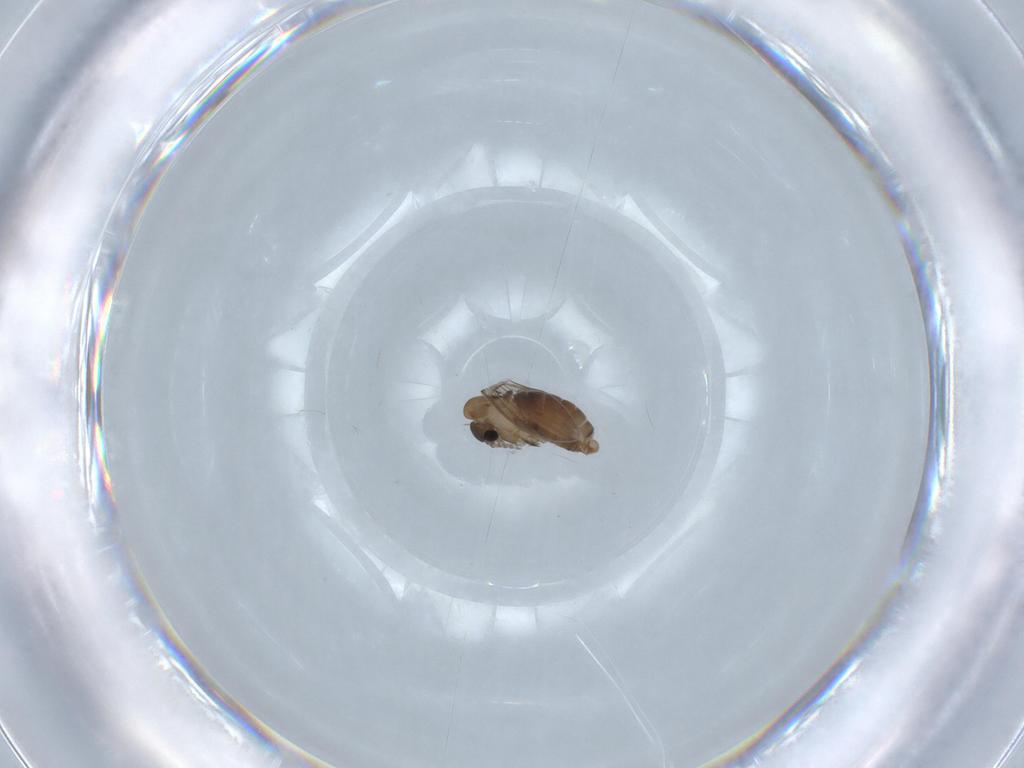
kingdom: Animalia
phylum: Arthropoda
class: Insecta
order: Diptera
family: Psychodidae
